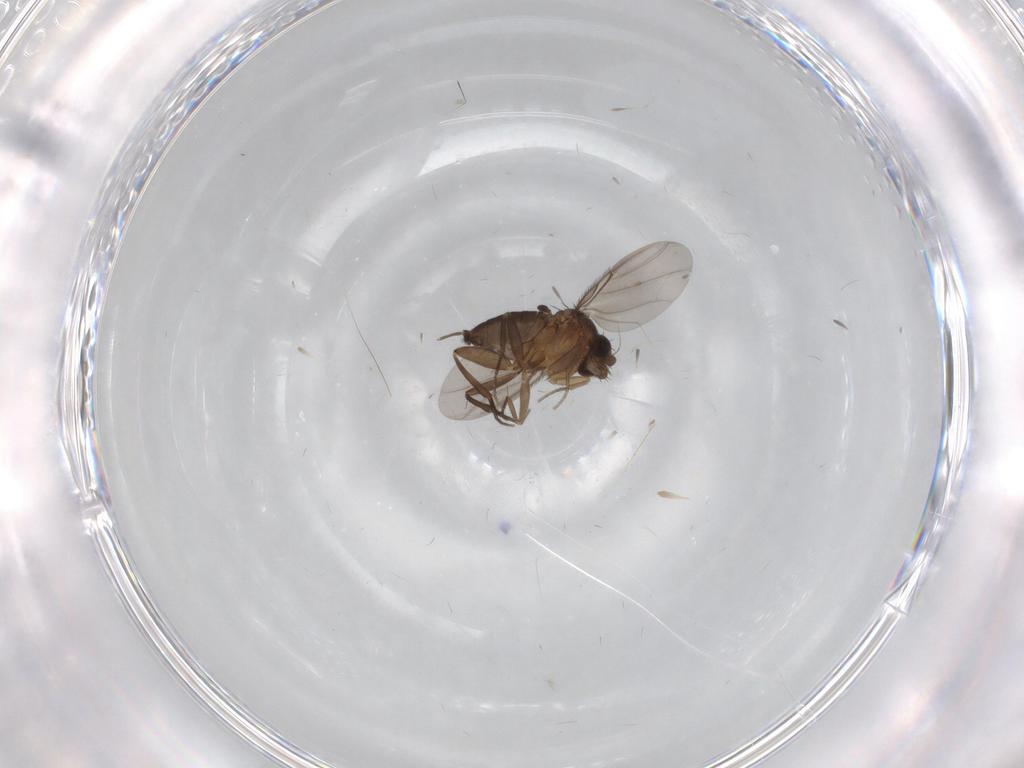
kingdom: Animalia
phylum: Arthropoda
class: Insecta
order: Diptera
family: Phoridae
